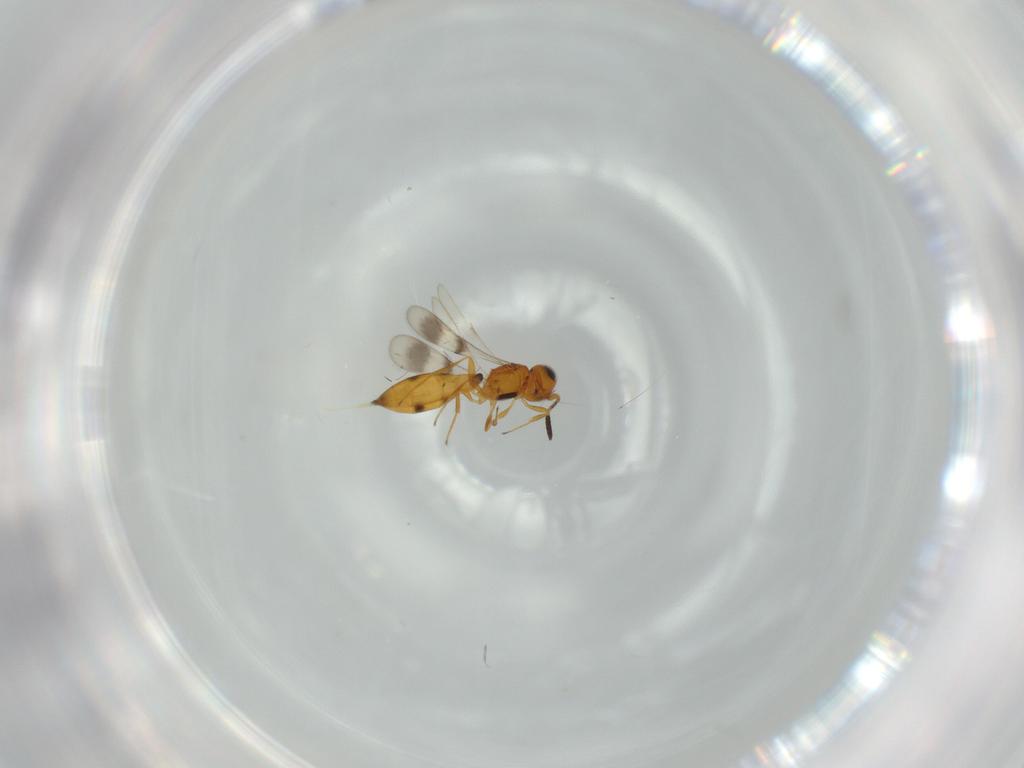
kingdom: Animalia
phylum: Arthropoda
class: Insecta
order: Hymenoptera
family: Scelionidae
